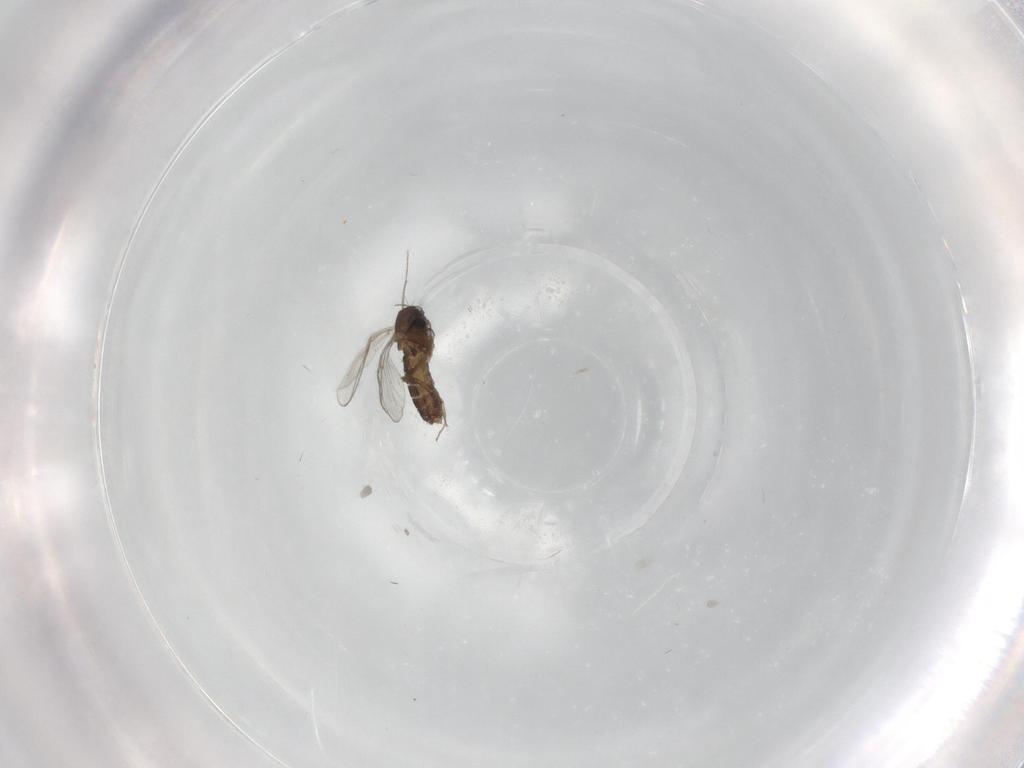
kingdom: Animalia
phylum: Arthropoda
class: Insecta
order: Diptera
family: Chironomidae
